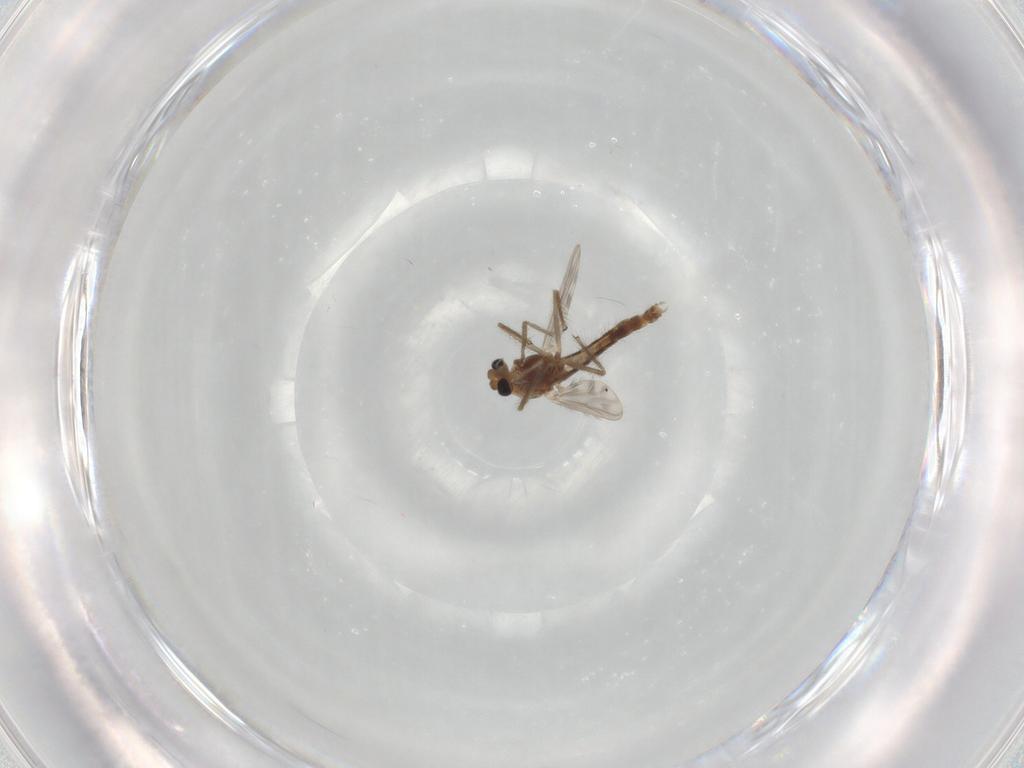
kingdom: Animalia
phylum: Arthropoda
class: Insecta
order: Diptera
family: Chironomidae
